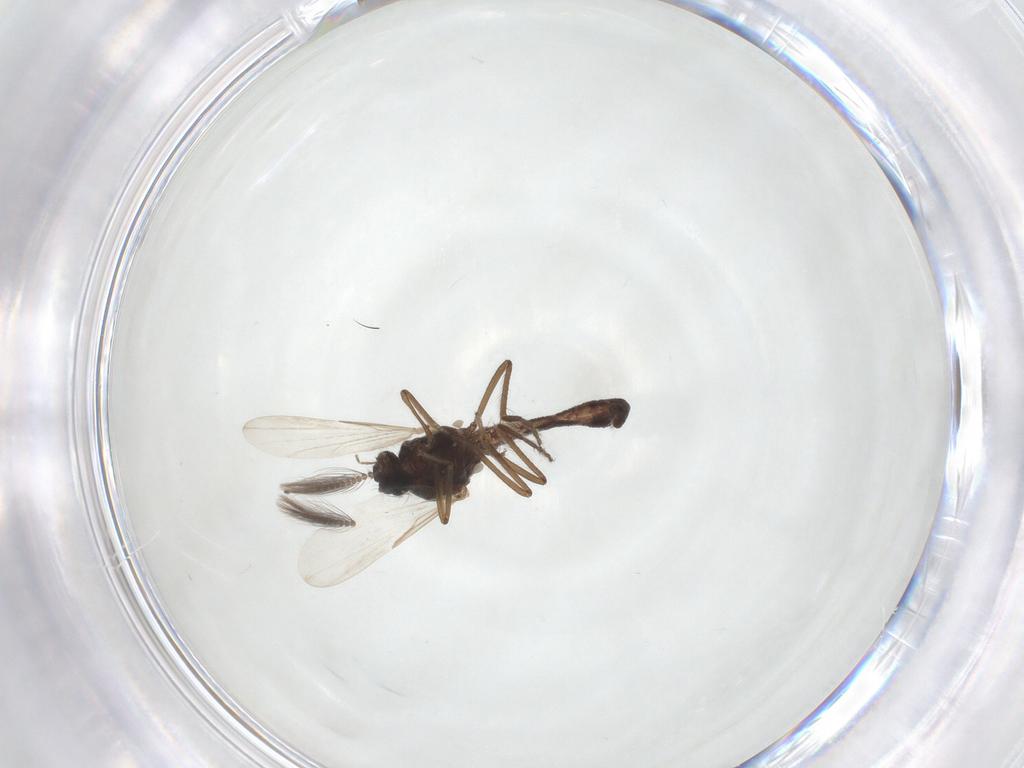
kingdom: Animalia
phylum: Arthropoda
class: Insecta
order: Diptera
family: Ceratopogonidae
